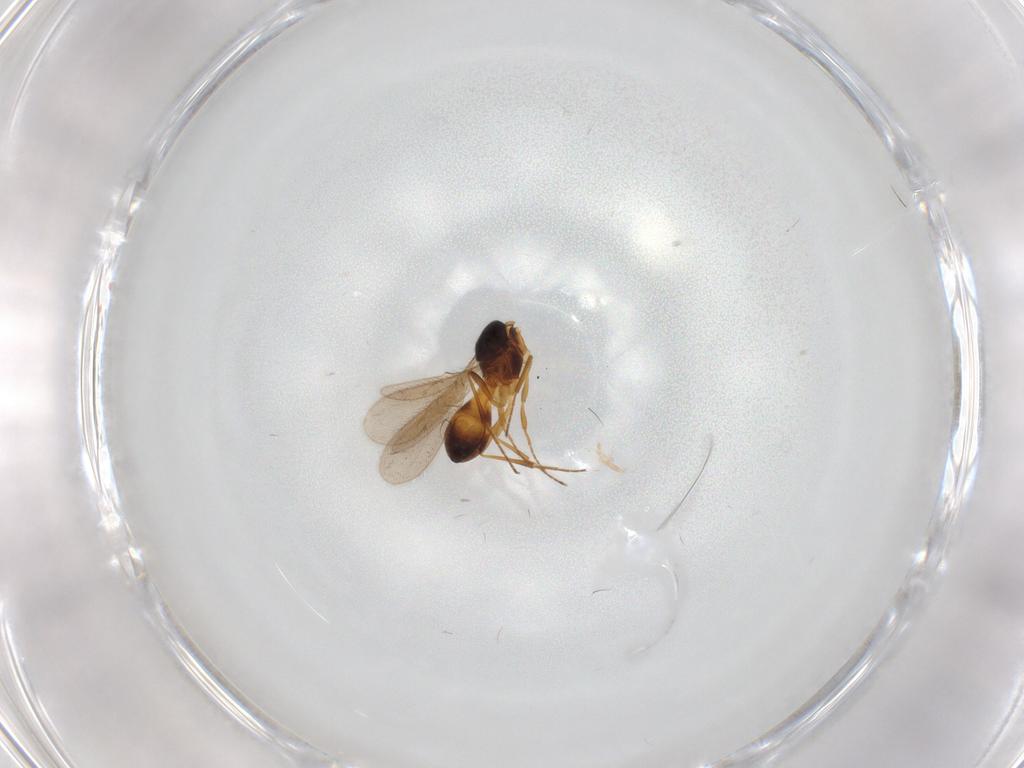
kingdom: Animalia
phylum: Arthropoda
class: Insecta
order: Hymenoptera
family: Scelionidae
